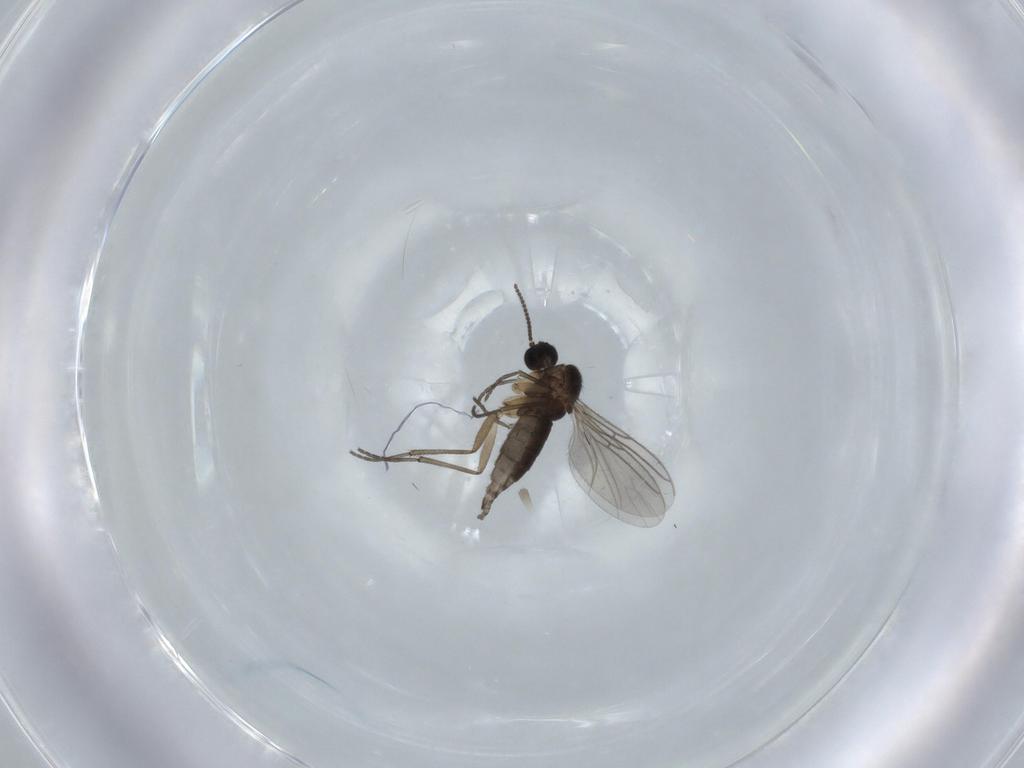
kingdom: Animalia
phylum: Arthropoda
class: Insecta
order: Diptera
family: Sciaridae
